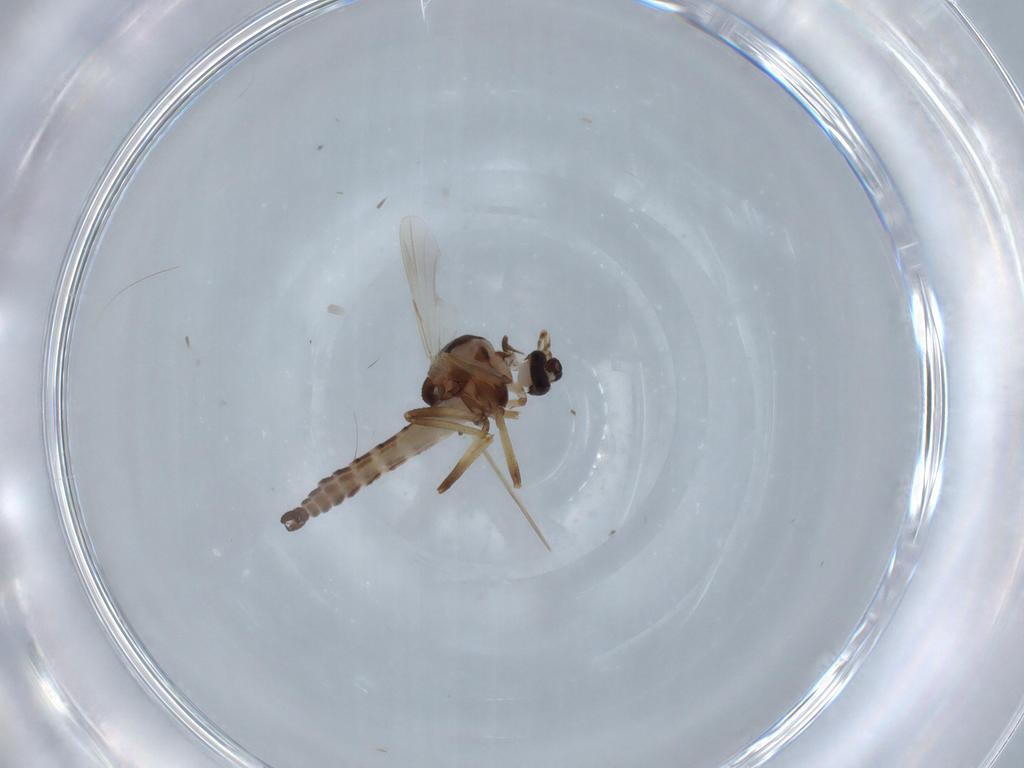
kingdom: Animalia
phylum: Arthropoda
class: Insecta
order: Diptera
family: Ceratopogonidae
